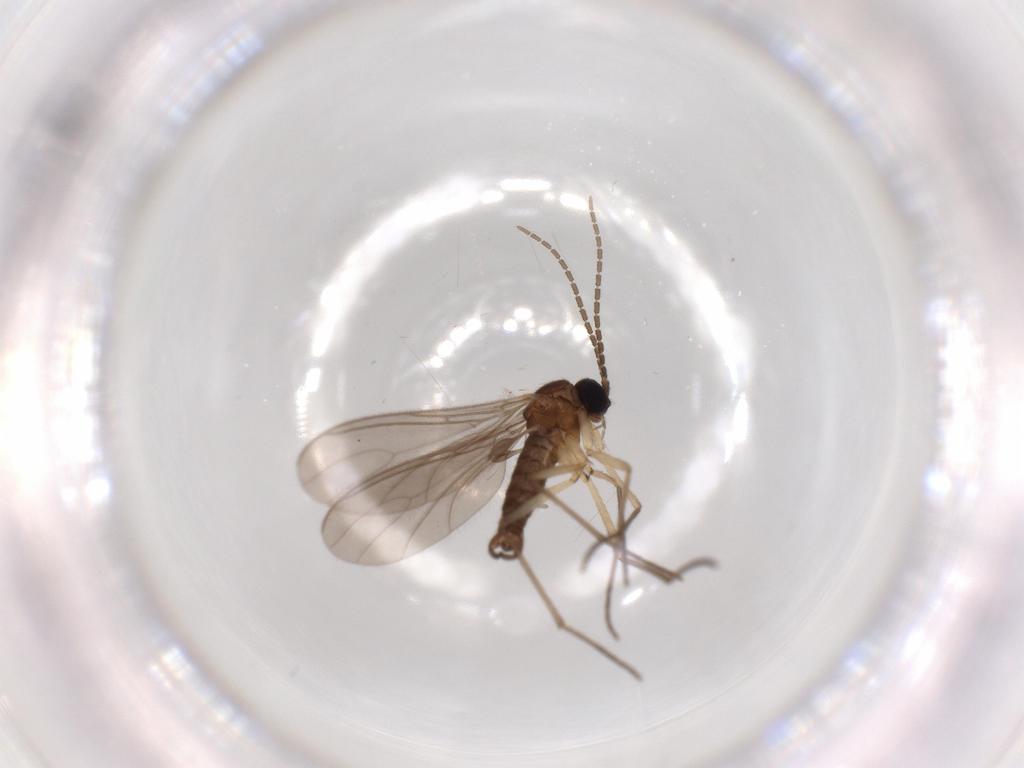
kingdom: Animalia
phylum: Arthropoda
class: Insecta
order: Diptera
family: Sciaridae
